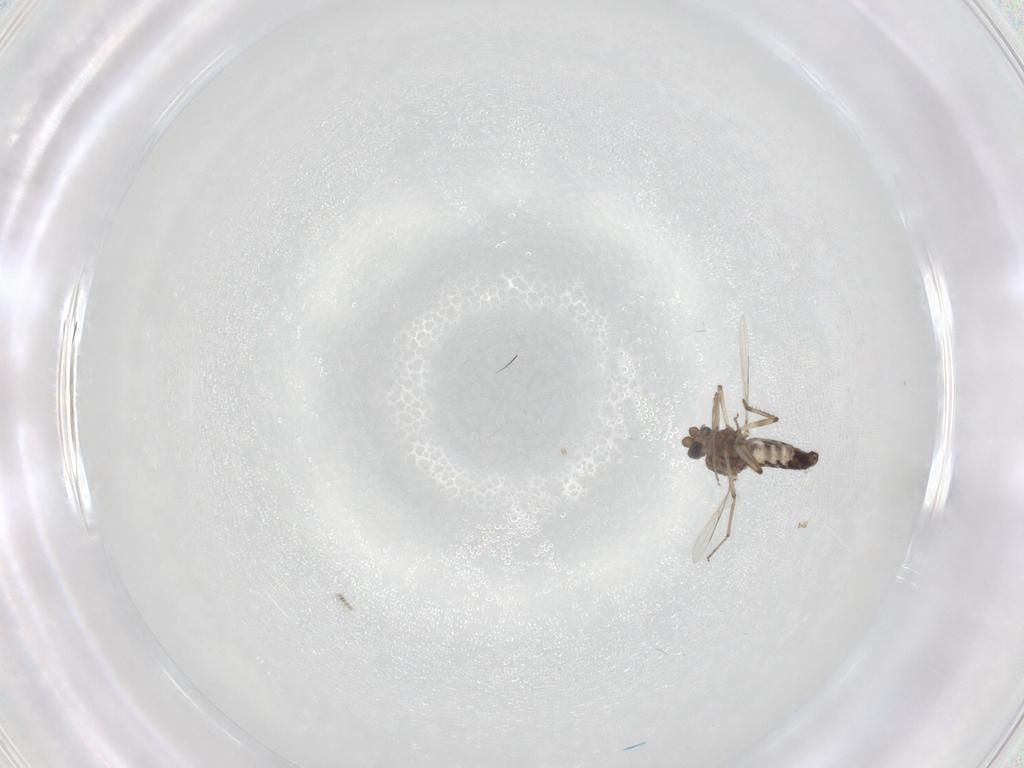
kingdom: Animalia
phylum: Arthropoda
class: Insecta
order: Diptera
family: Ceratopogonidae
